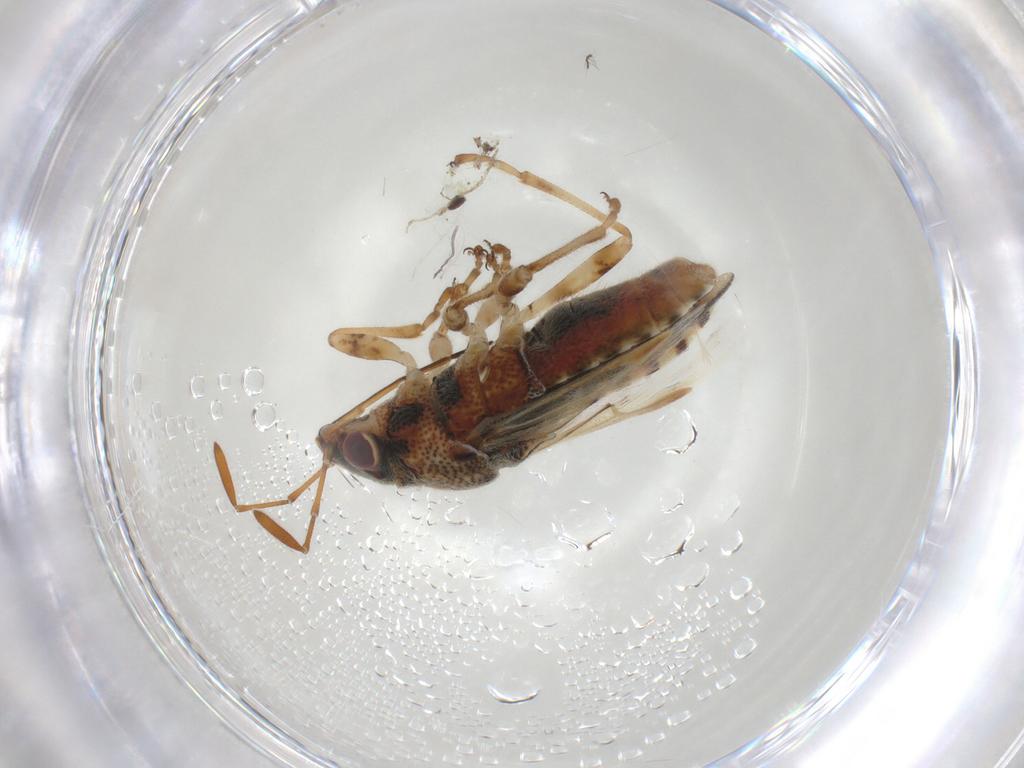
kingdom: Animalia
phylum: Arthropoda
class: Insecta
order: Hemiptera
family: Lygaeidae
